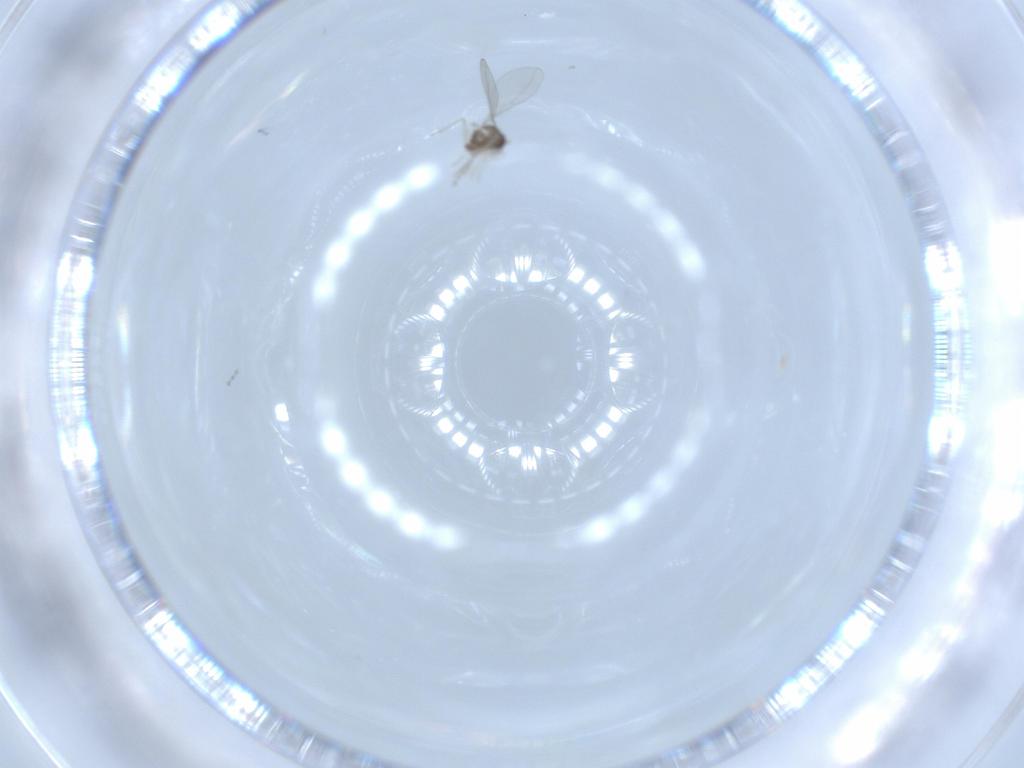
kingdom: Animalia
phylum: Arthropoda
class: Insecta
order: Diptera
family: Cecidomyiidae
